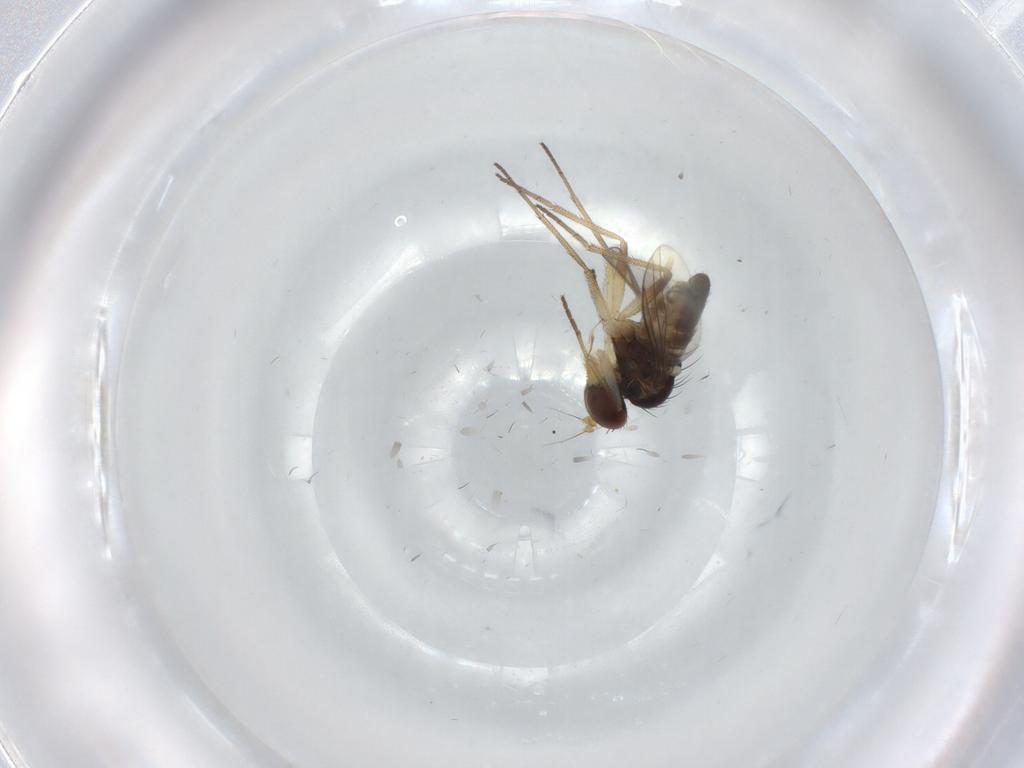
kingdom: Animalia
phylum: Arthropoda
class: Insecta
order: Diptera
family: Dolichopodidae
